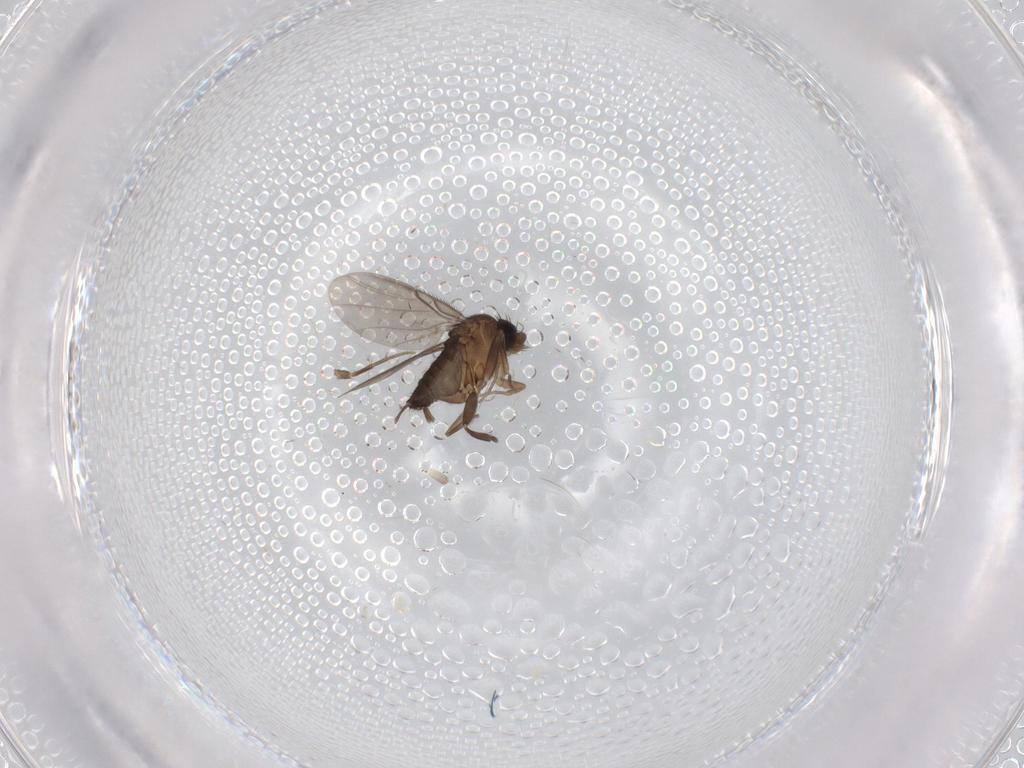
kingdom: Animalia
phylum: Arthropoda
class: Insecta
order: Diptera
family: Phoridae
